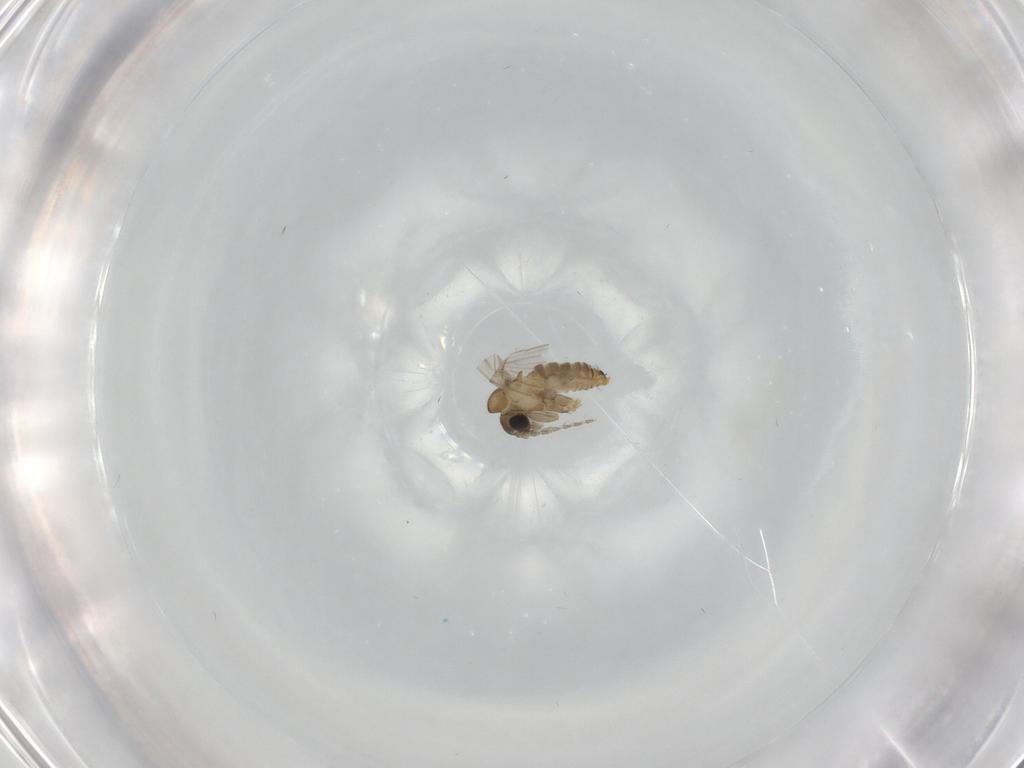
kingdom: Animalia
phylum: Arthropoda
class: Insecta
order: Diptera
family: Psychodidae
